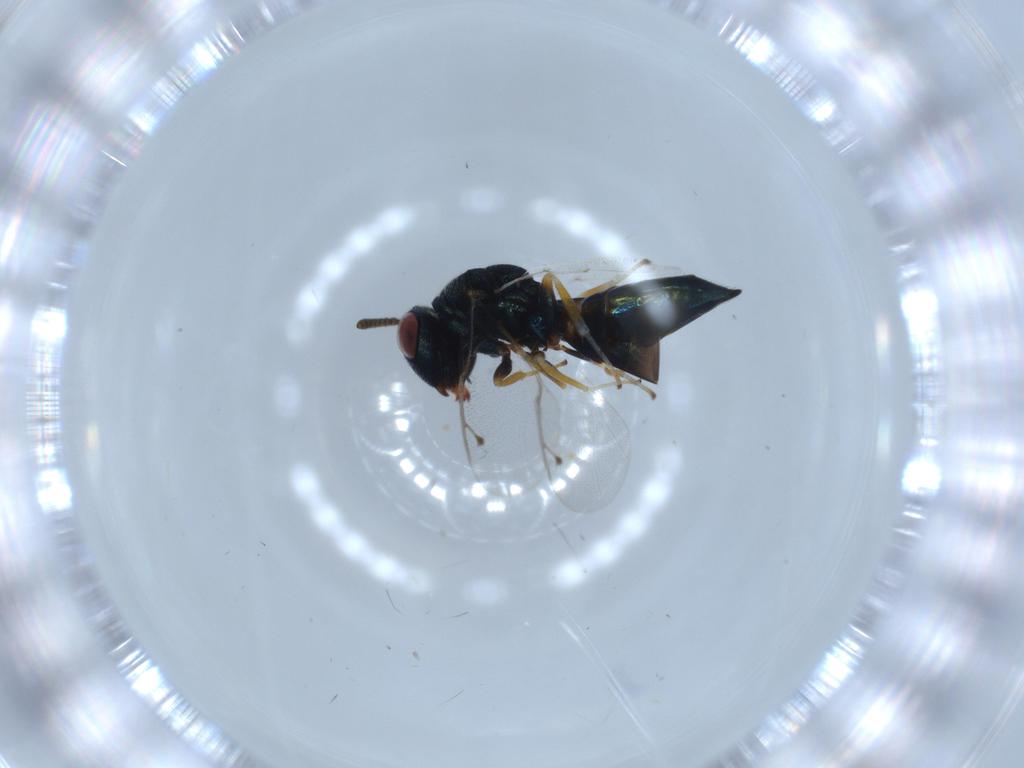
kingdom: Animalia
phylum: Arthropoda
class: Insecta
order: Hymenoptera
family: Pteromalidae
